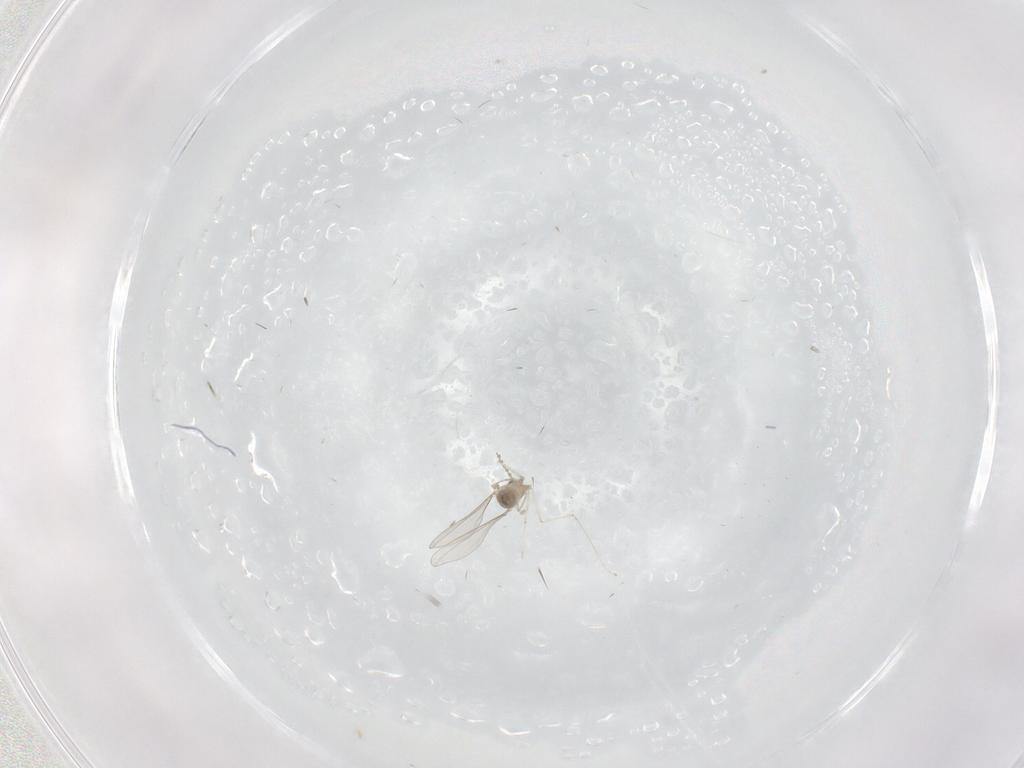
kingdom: Animalia
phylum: Arthropoda
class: Insecta
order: Diptera
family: Cecidomyiidae
